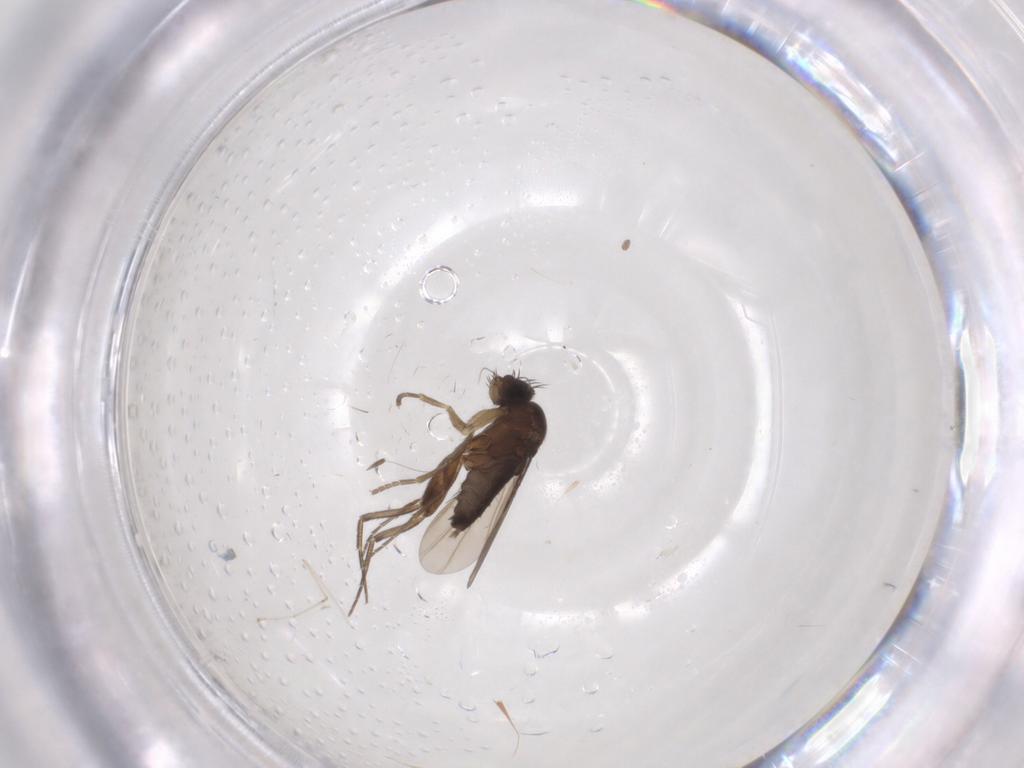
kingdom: Animalia
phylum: Arthropoda
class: Insecta
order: Diptera
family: Phoridae
